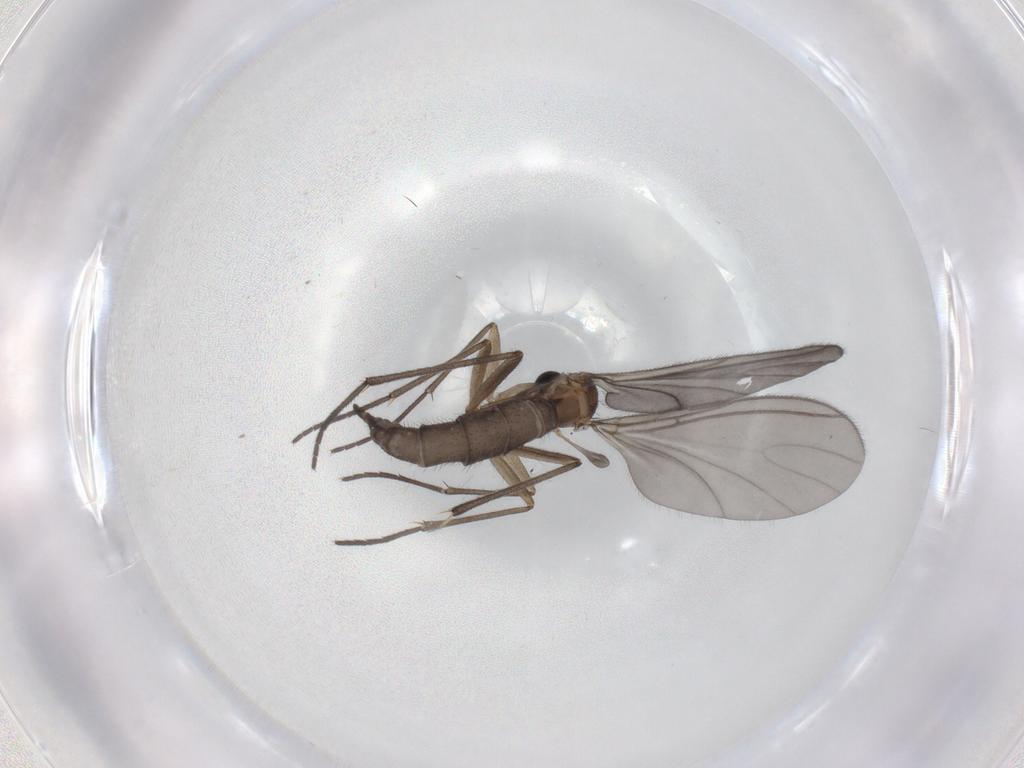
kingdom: Animalia
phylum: Arthropoda
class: Insecta
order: Diptera
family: Sciaridae
